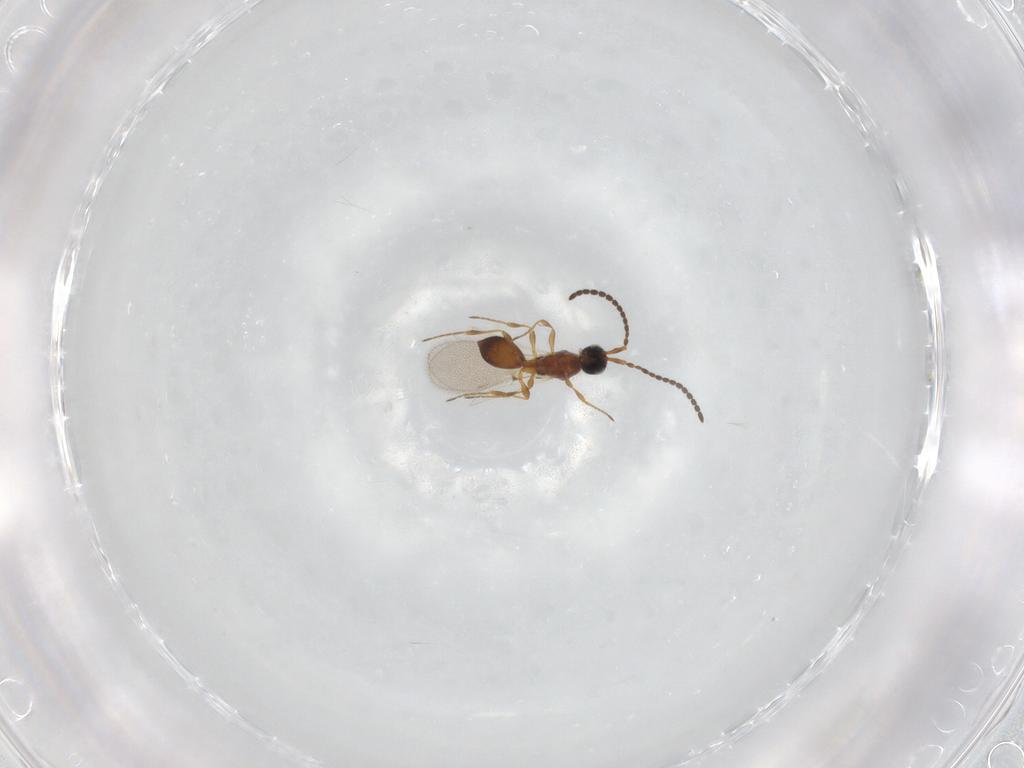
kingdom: Animalia
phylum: Arthropoda
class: Insecta
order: Hymenoptera
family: Diapriidae
